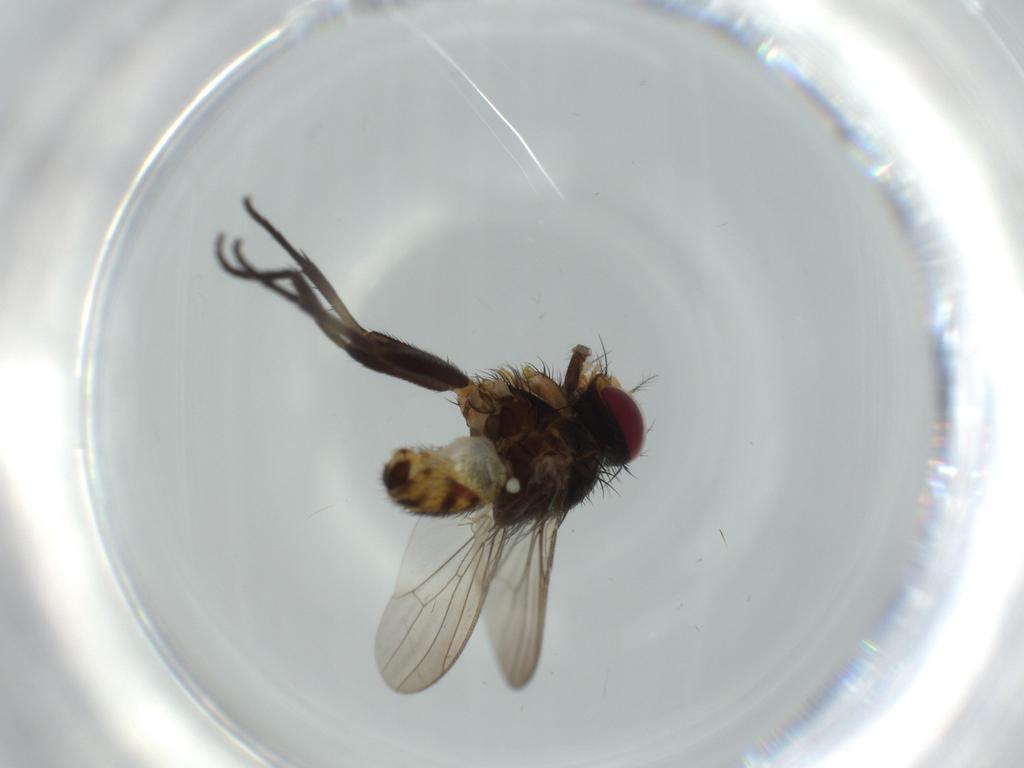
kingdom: Animalia
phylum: Arthropoda
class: Insecta
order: Diptera
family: Anthomyiidae
